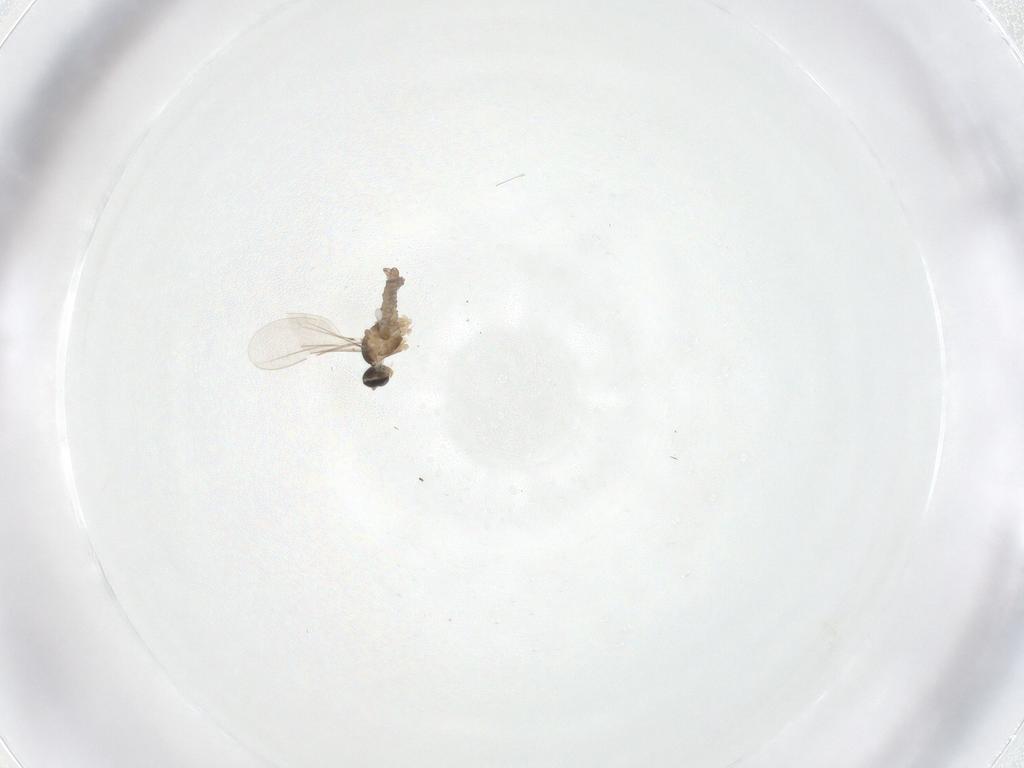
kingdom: Animalia
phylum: Arthropoda
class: Insecta
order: Diptera
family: Cecidomyiidae
